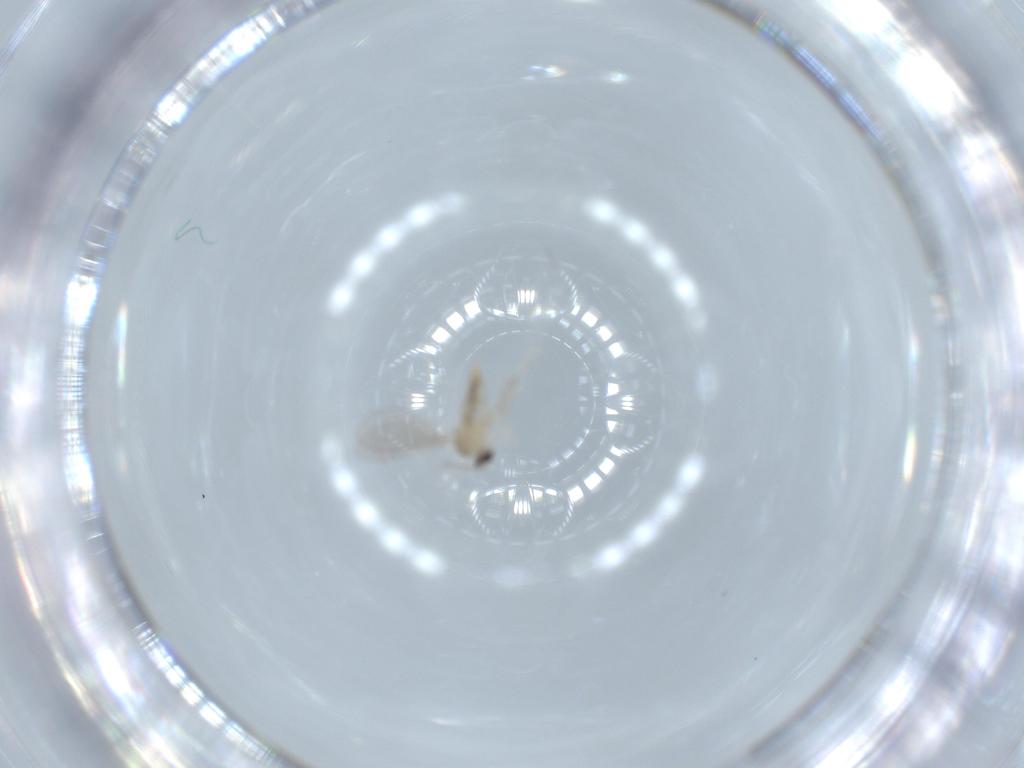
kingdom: Animalia
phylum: Arthropoda
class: Insecta
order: Diptera
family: Cecidomyiidae
